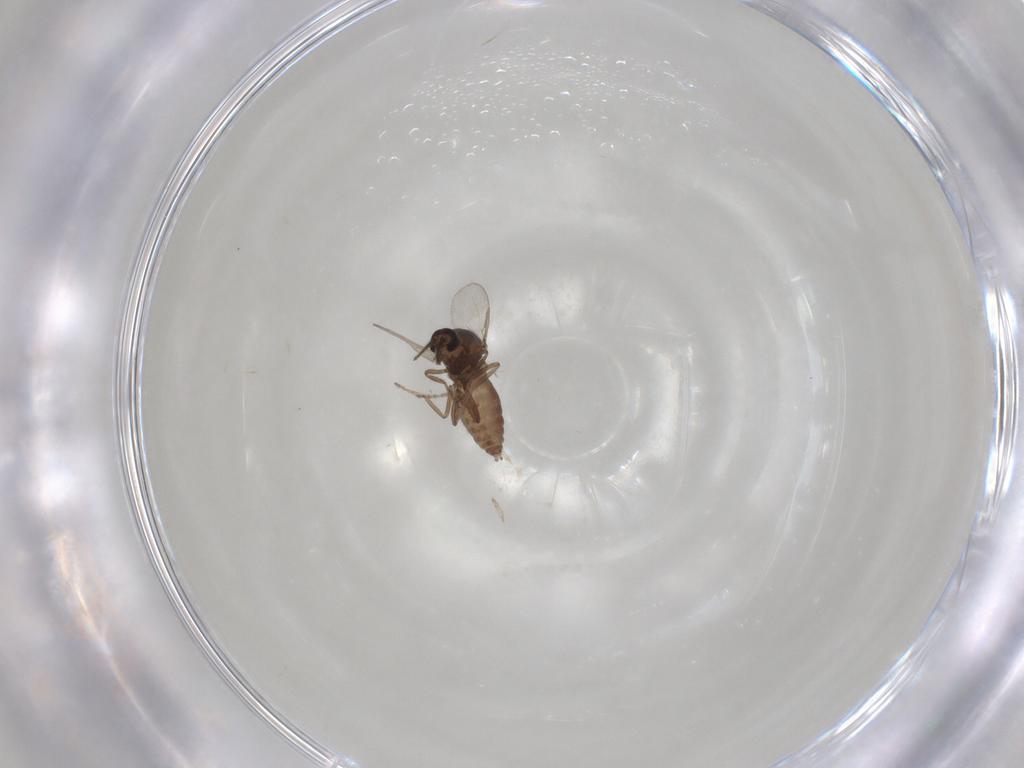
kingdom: Animalia
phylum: Arthropoda
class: Insecta
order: Diptera
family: Ceratopogonidae
